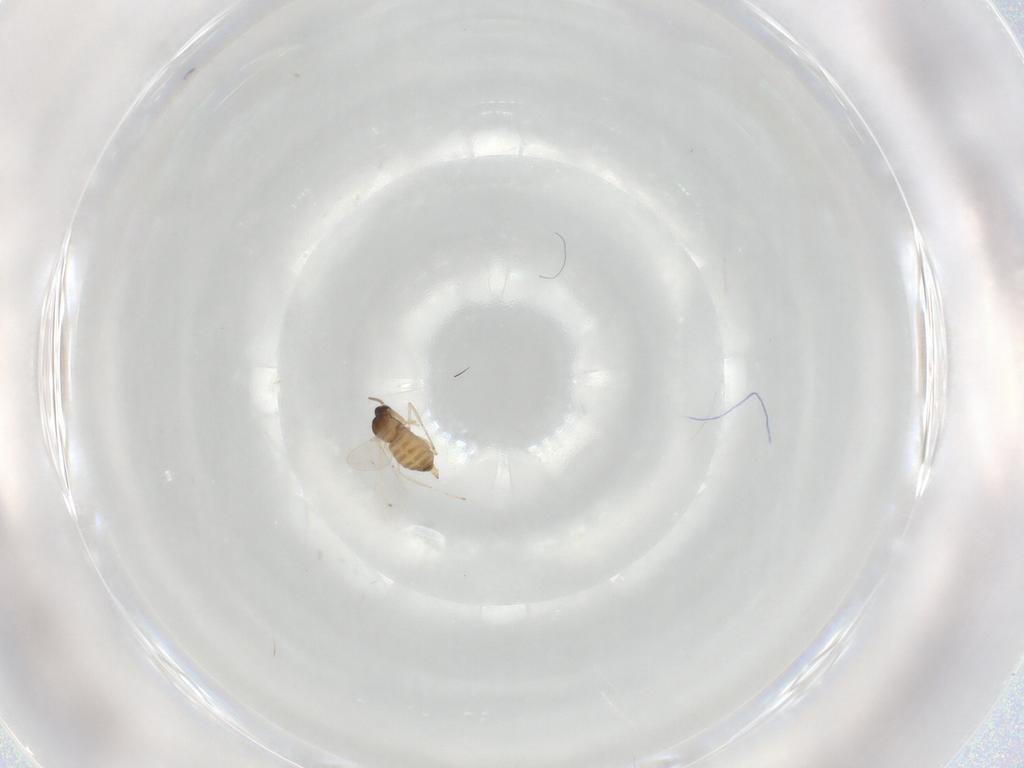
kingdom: Animalia
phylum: Arthropoda
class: Insecta
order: Diptera
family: Cecidomyiidae
